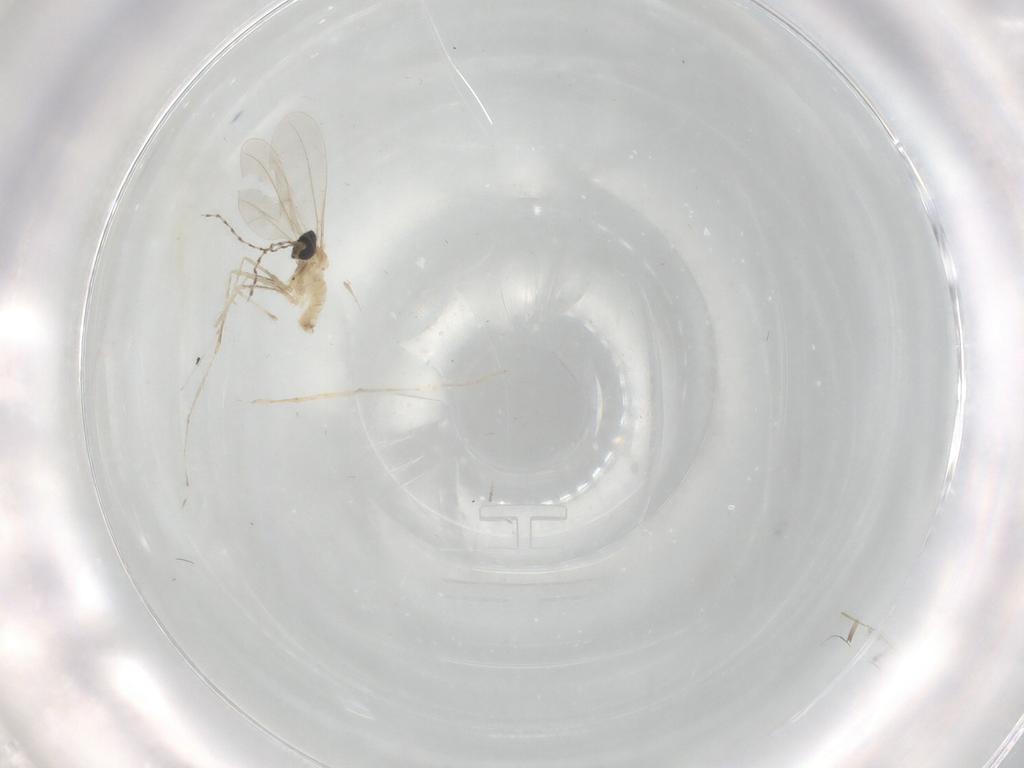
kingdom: Animalia
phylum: Arthropoda
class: Insecta
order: Diptera
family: Cecidomyiidae
